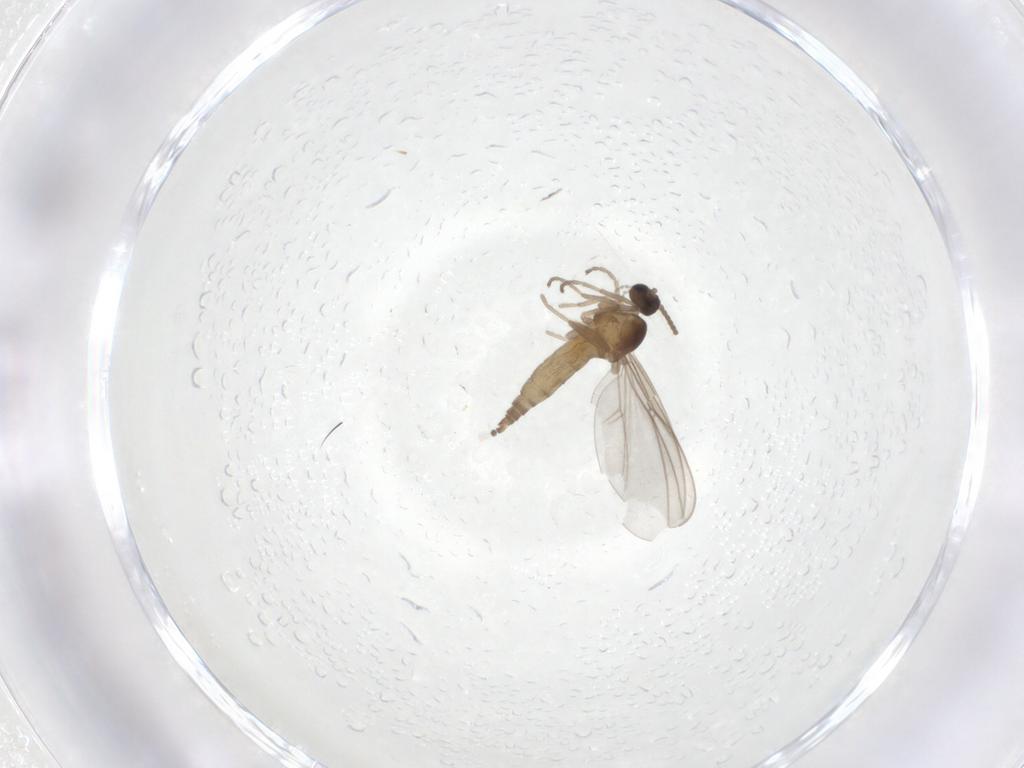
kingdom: Animalia
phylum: Arthropoda
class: Insecta
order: Diptera
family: Cecidomyiidae
